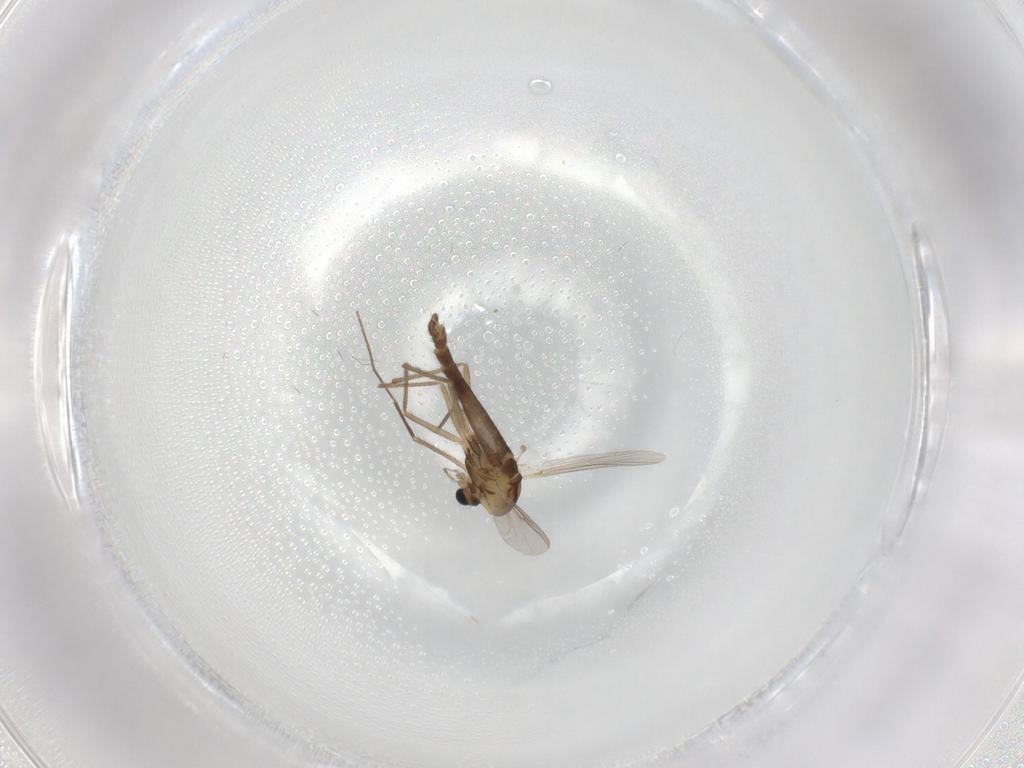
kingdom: Animalia
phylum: Arthropoda
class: Insecta
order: Diptera
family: Chironomidae
